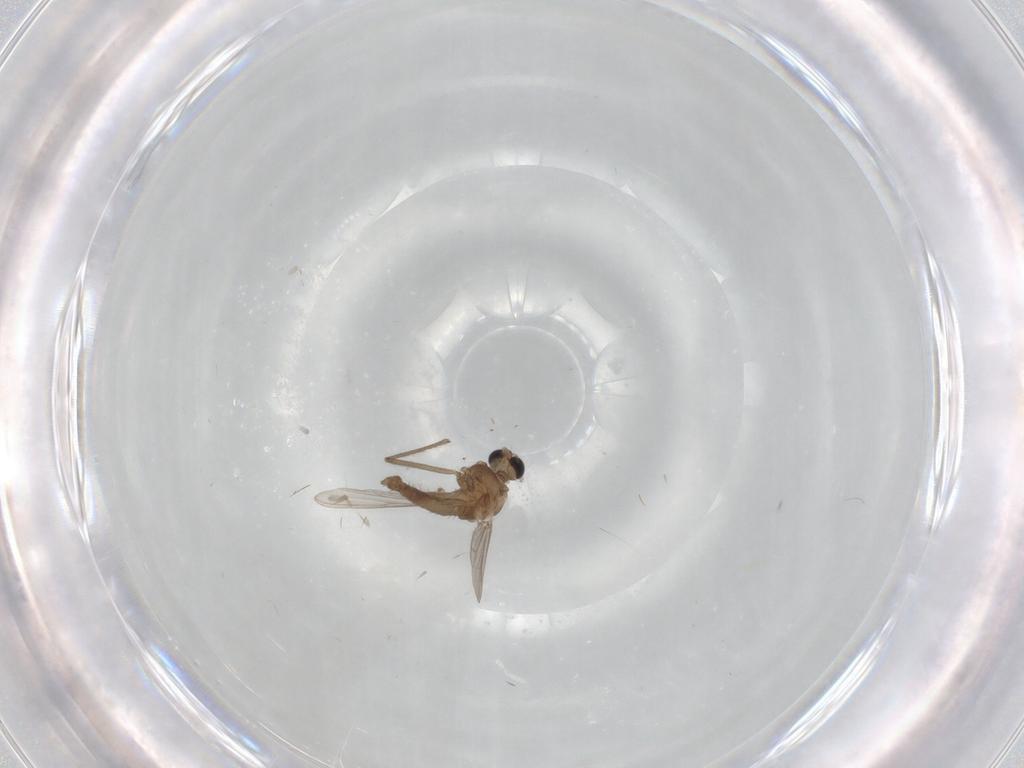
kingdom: Animalia
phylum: Arthropoda
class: Insecta
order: Diptera
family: Chironomidae
